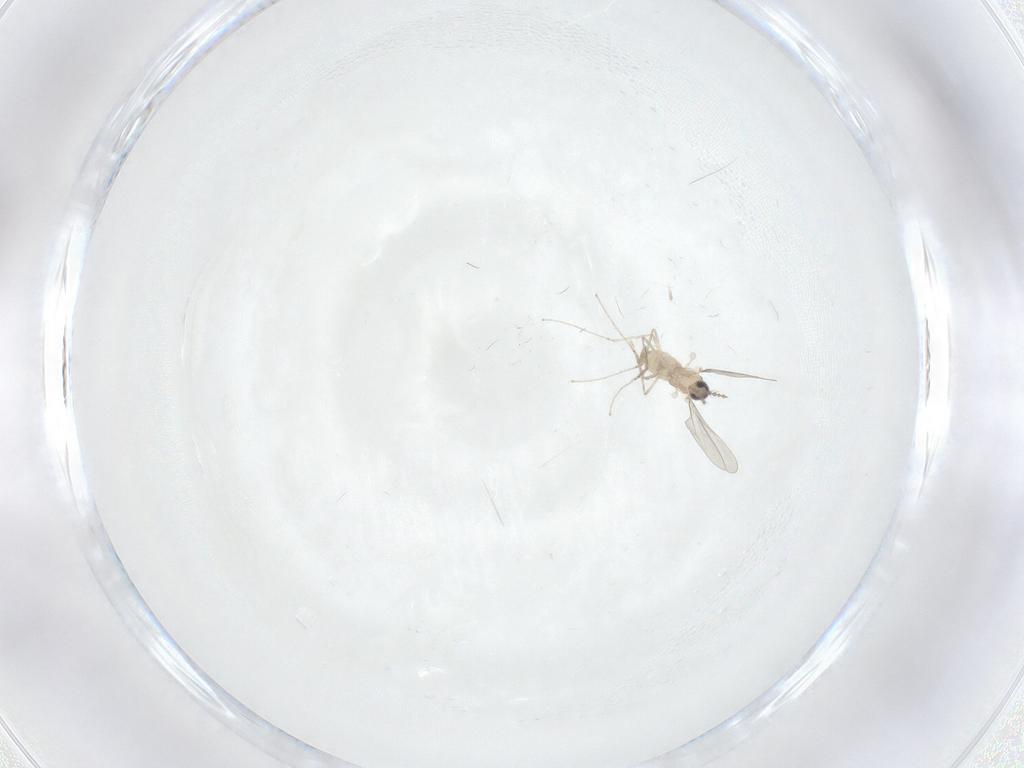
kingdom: Animalia
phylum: Arthropoda
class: Insecta
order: Diptera
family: Cecidomyiidae
